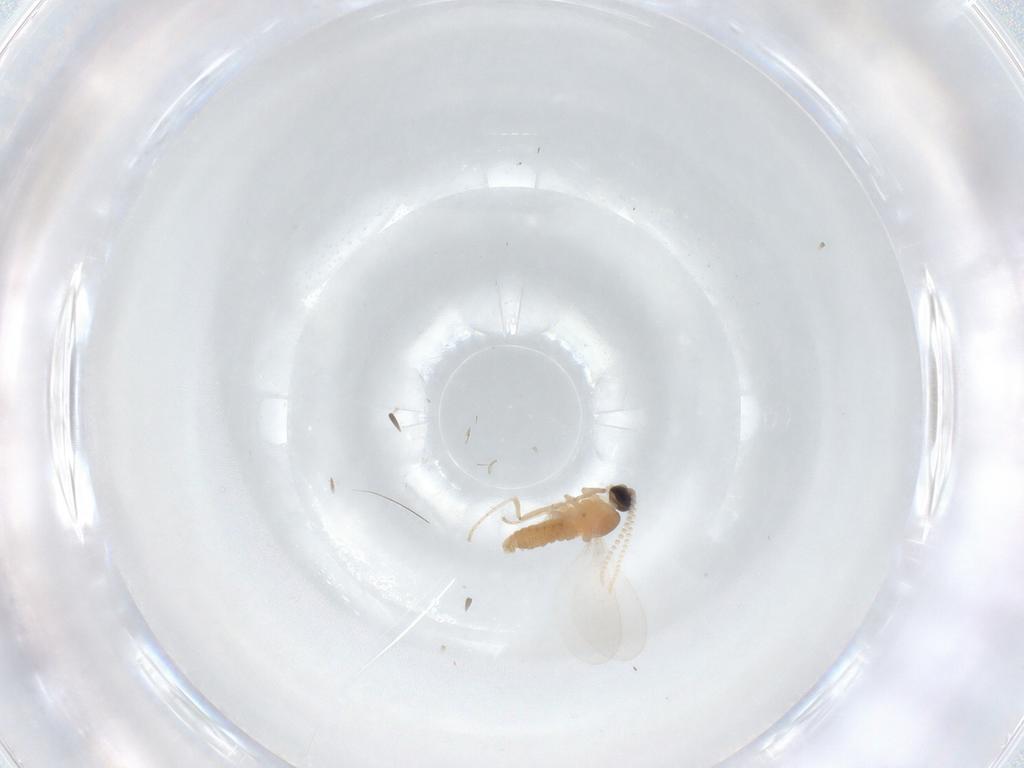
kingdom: Animalia
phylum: Arthropoda
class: Insecta
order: Diptera
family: Cecidomyiidae
